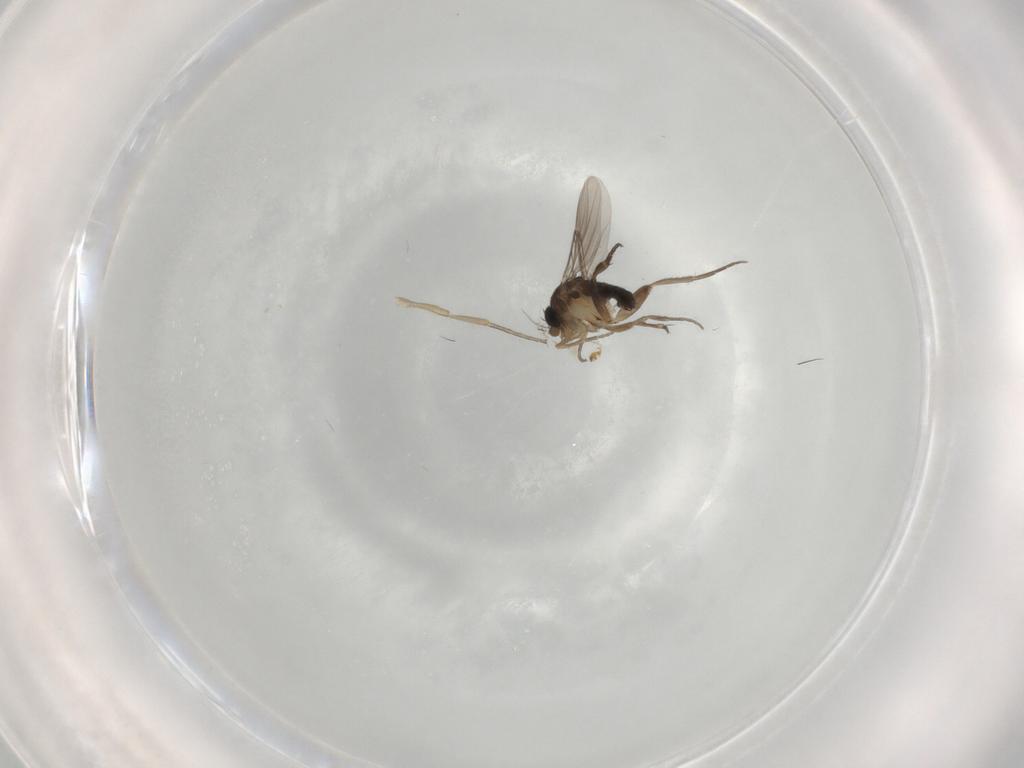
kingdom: Animalia
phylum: Arthropoda
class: Insecta
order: Diptera
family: Phoridae
